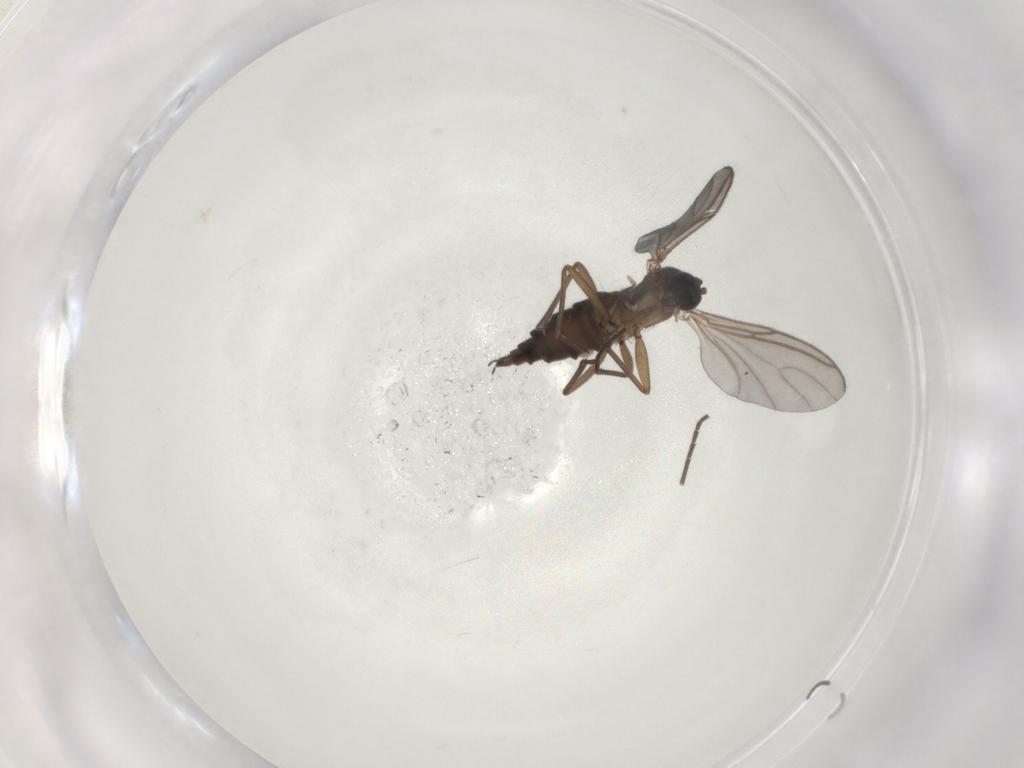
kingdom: Animalia
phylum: Arthropoda
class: Insecta
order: Diptera
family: Sciaridae
